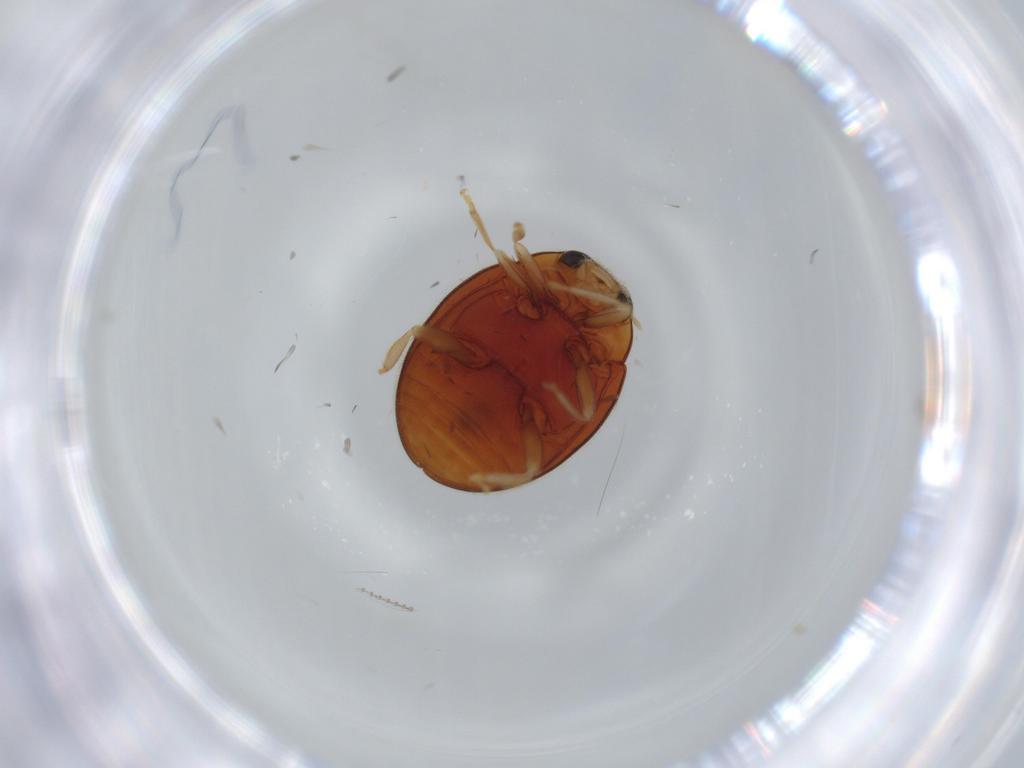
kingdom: Animalia
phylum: Arthropoda
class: Insecta
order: Coleoptera
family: Coccinellidae
